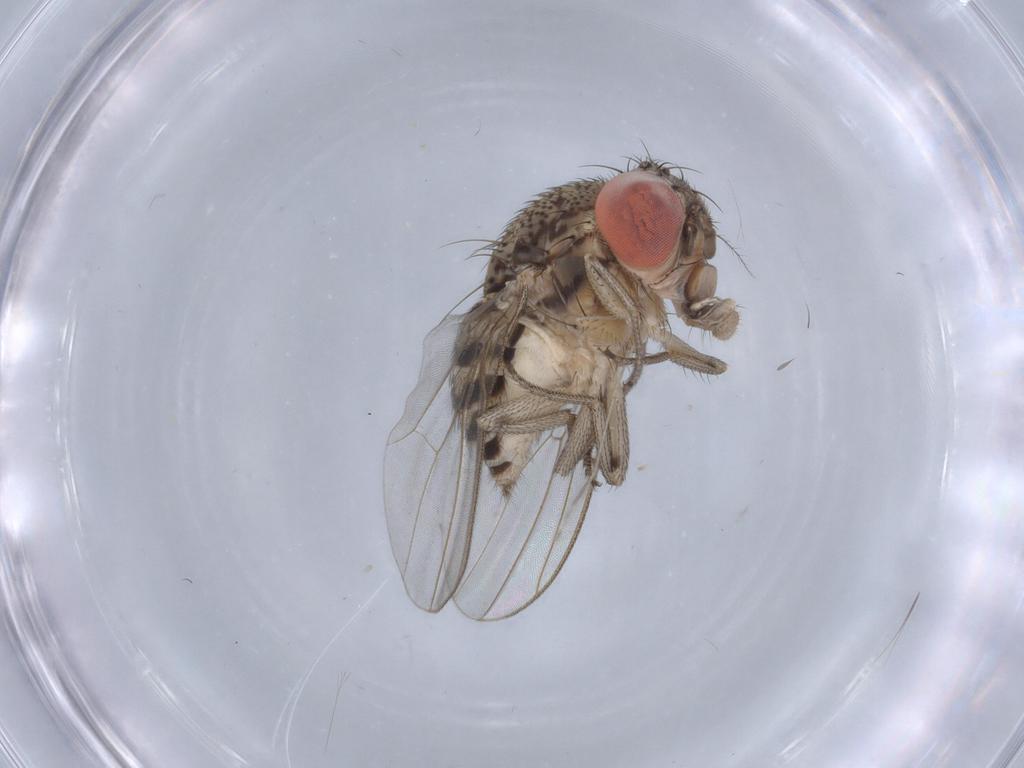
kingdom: Animalia
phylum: Arthropoda
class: Insecta
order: Diptera
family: Drosophilidae
